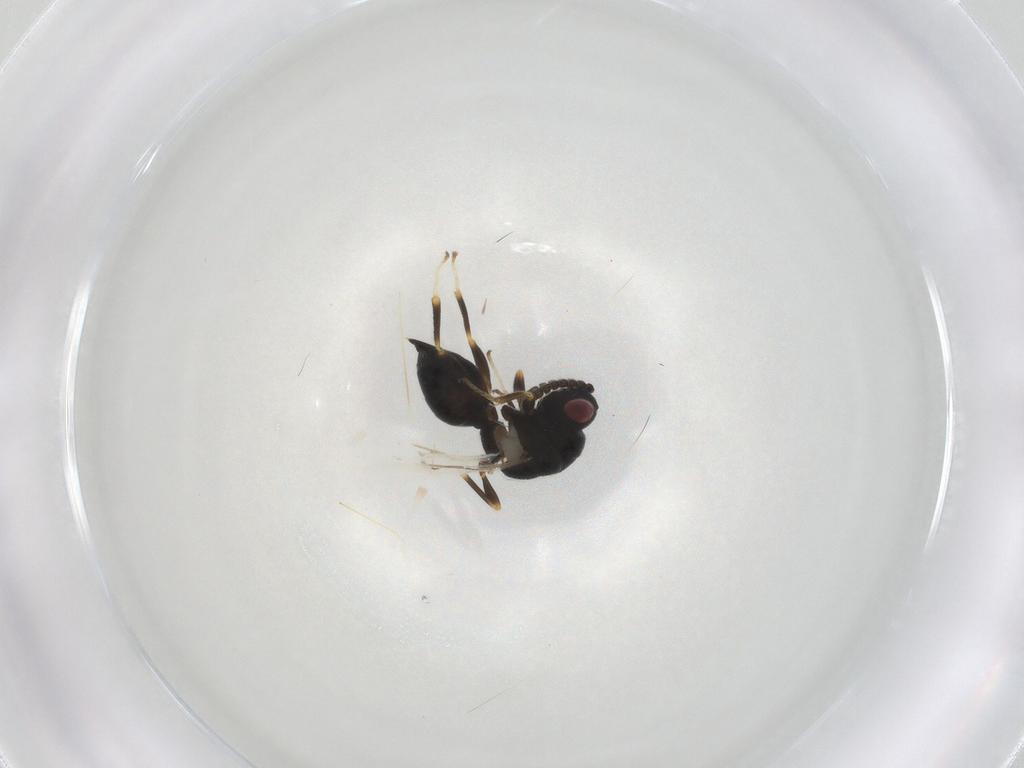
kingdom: Animalia
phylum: Arthropoda
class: Insecta
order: Hymenoptera
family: Eurytomidae
